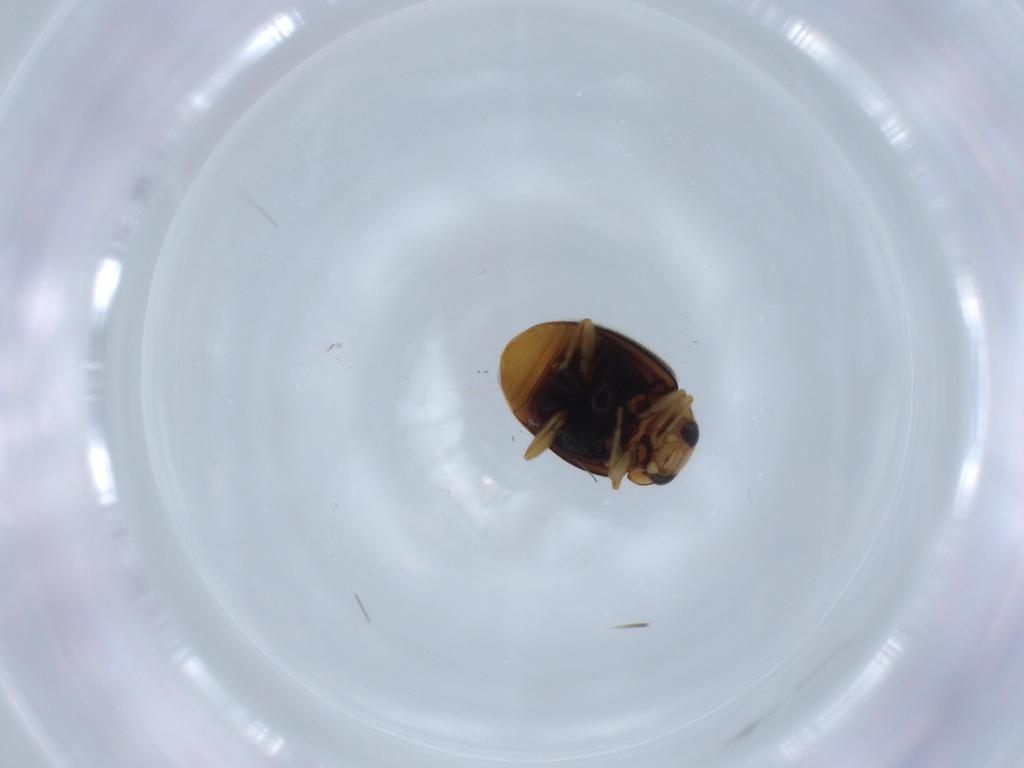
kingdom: Animalia
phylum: Arthropoda
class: Insecta
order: Coleoptera
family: Staphylinidae
